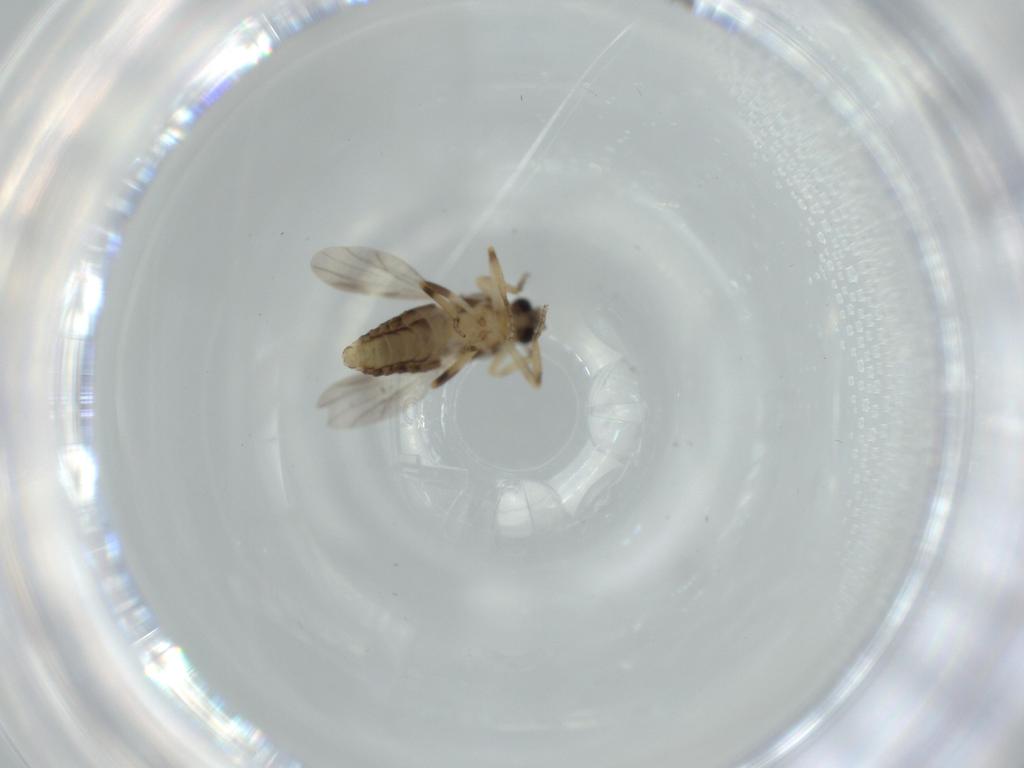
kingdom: Animalia
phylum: Arthropoda
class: Insecta
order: Diptera
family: Ceratopogonidae
